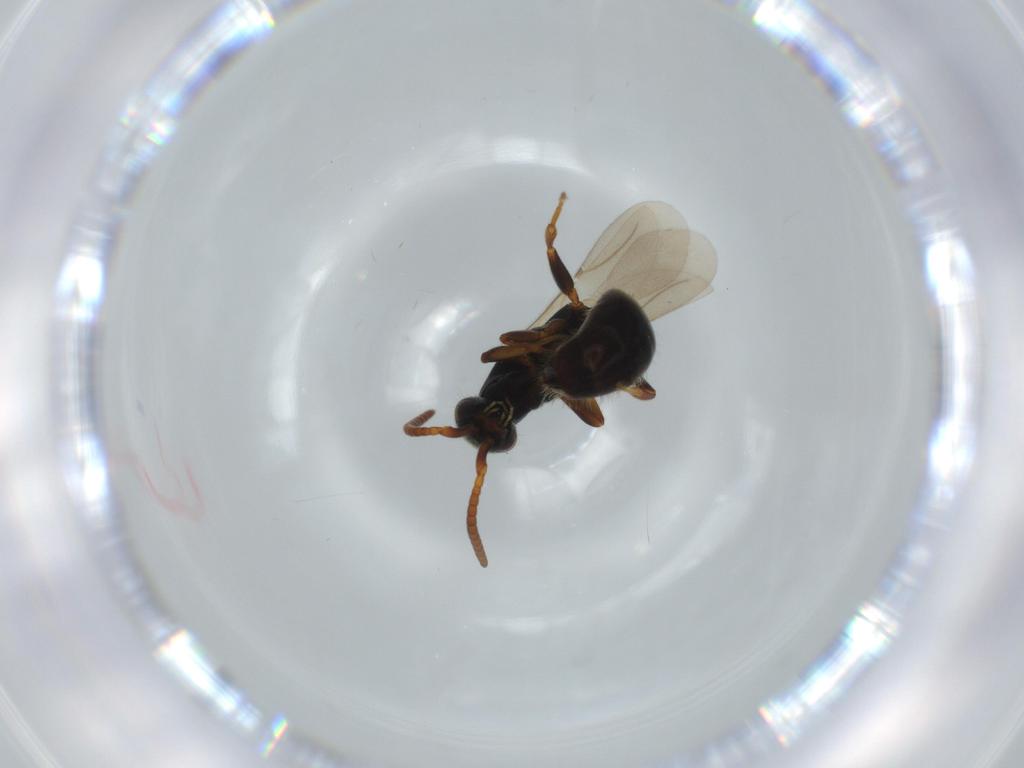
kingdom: Animalia
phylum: Arthropoda
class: Insecta
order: Hymenoptera
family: Bethylidae
